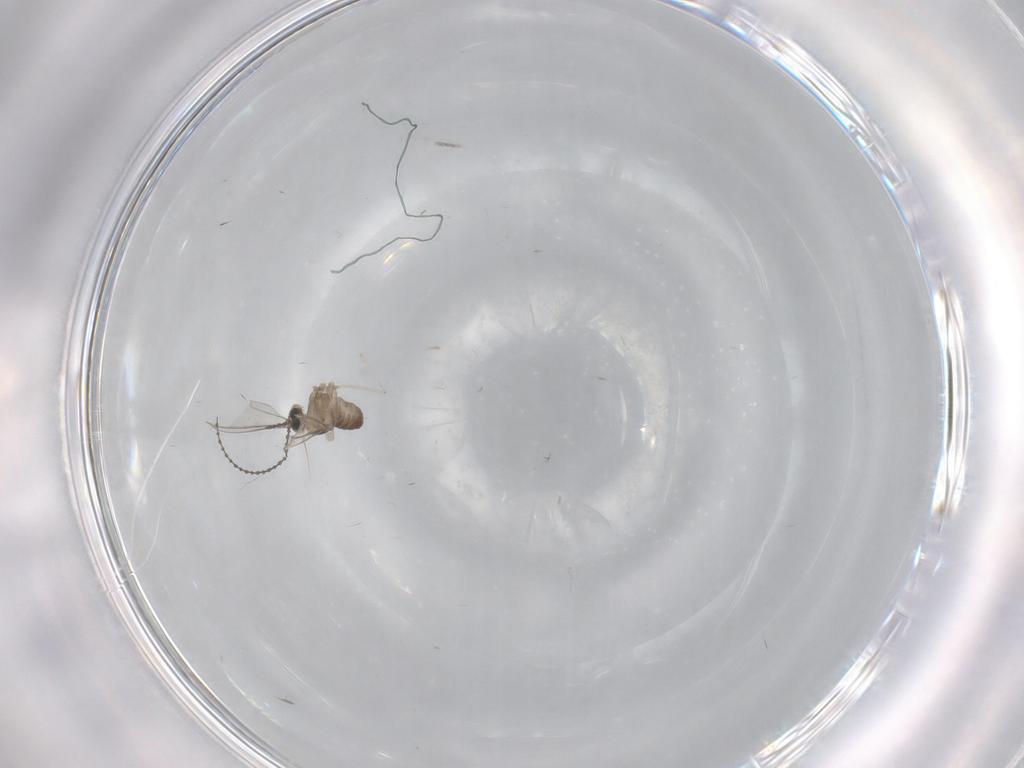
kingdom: Animalia
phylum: Arthropoda
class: Insecta
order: Diptera
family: Cecidomyiidae
